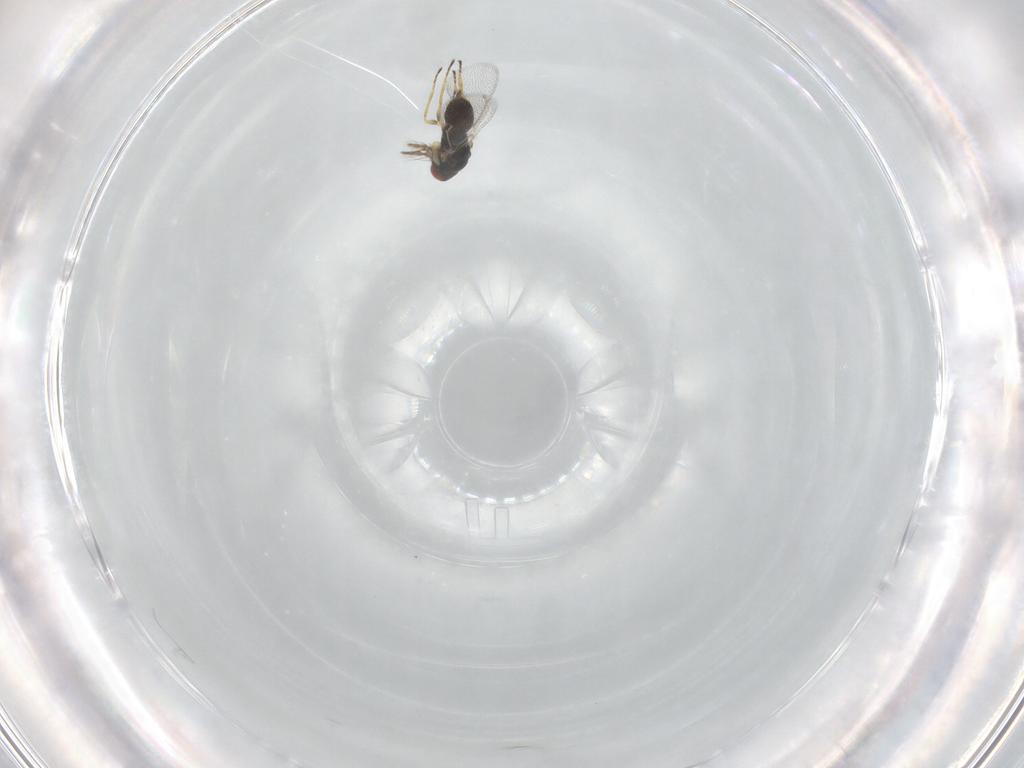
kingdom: Animalia
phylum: Arthropoda
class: Insecta
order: Hymenoptera
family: Eulophidae
